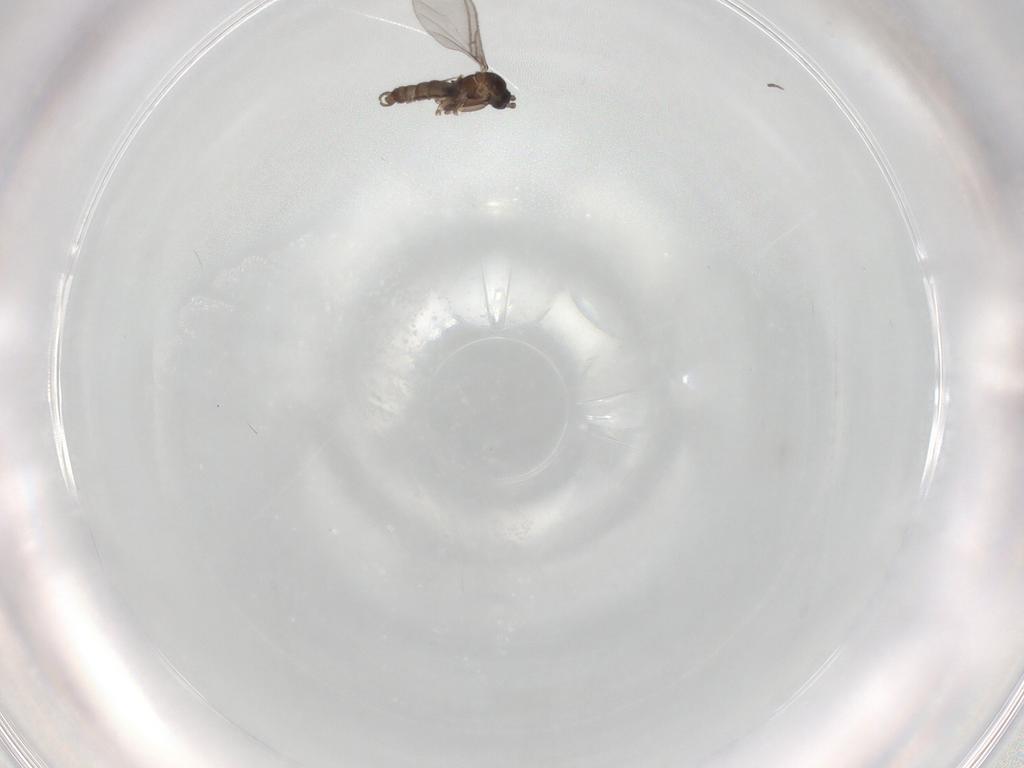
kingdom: Animalia
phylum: Arthropoda
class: Insecta
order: Diptera
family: Sciaridae
